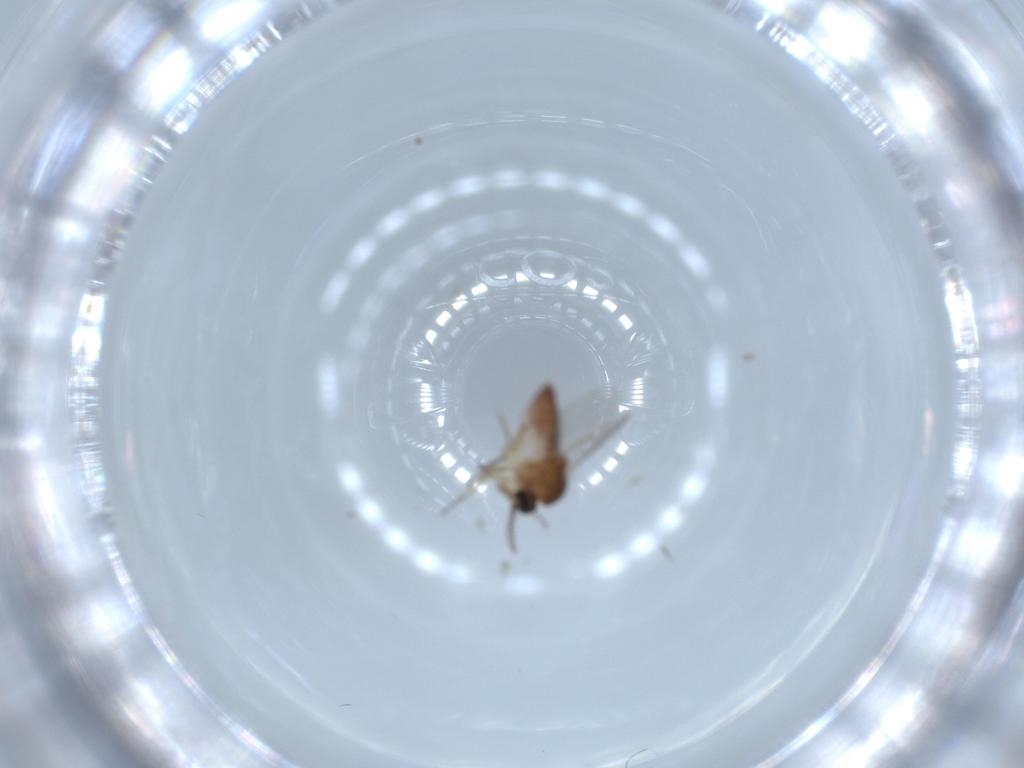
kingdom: Animalia
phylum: Arthropoda
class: Insecta
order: Diptera
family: Ceratopogonidae
